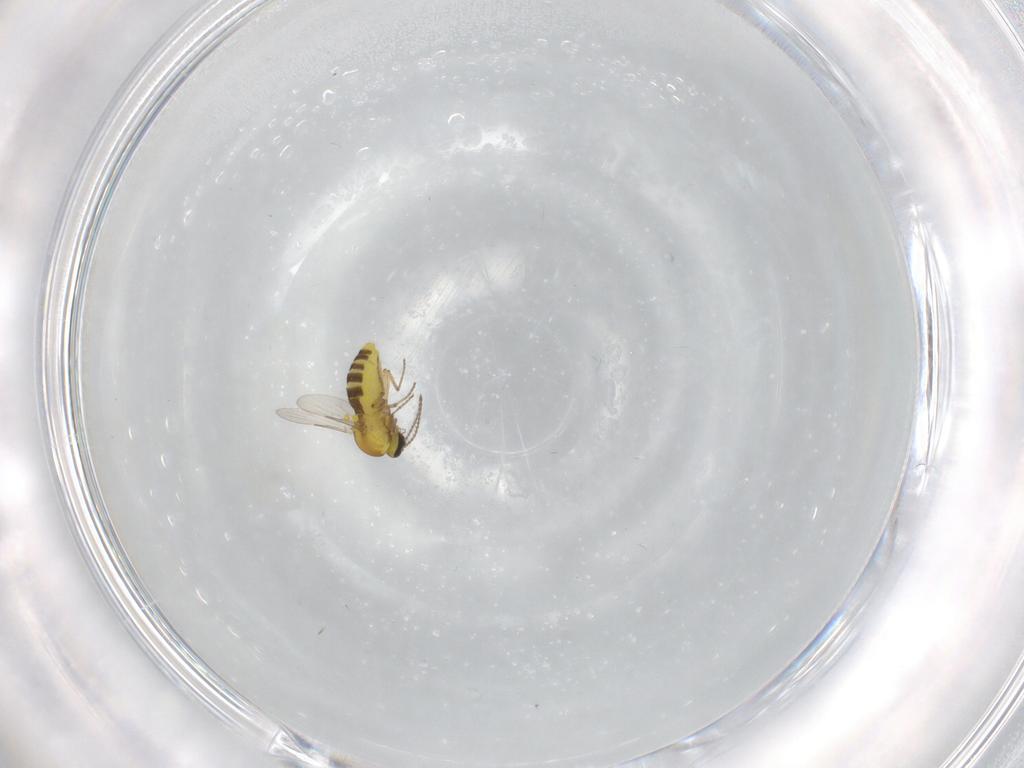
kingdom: Animalia
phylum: Arthropoda
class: Insecta
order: Diptera
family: Ceratopogonidae
